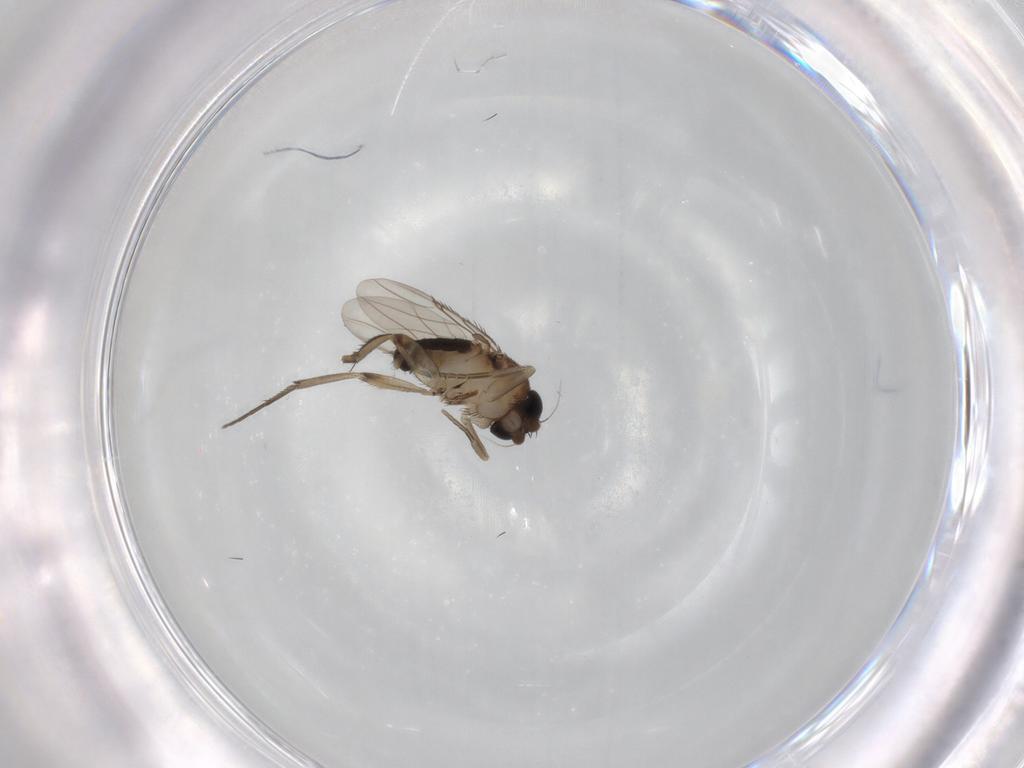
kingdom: Animalia
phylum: Arthropoda
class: Insecta
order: Diptera
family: Phoridae
